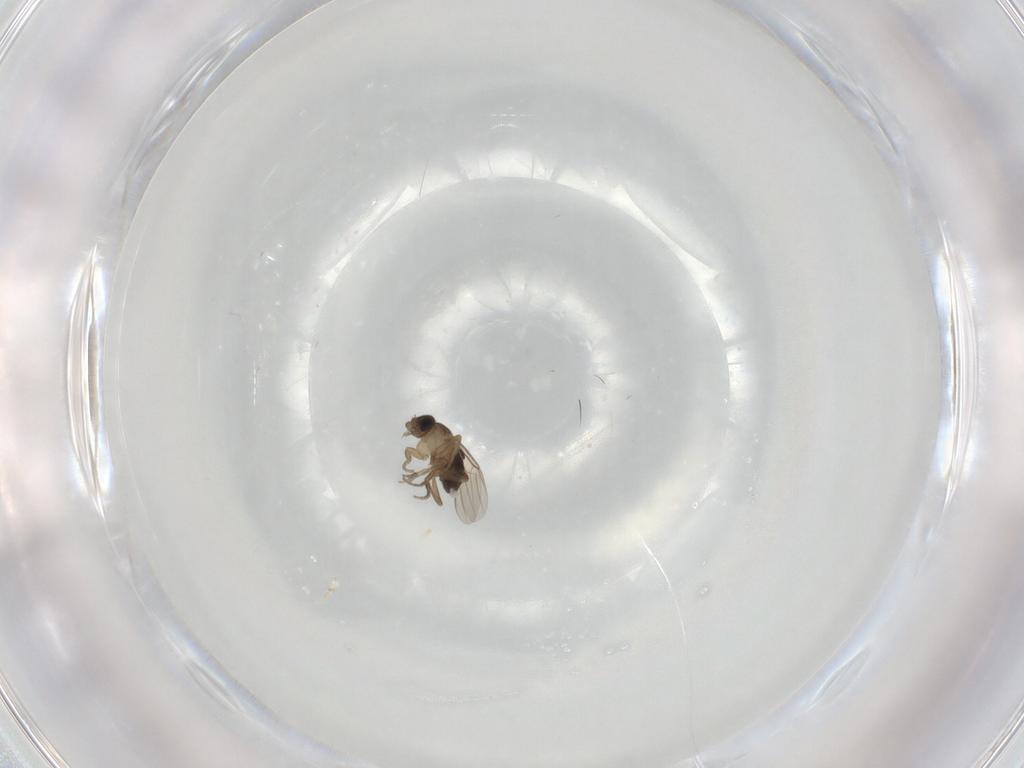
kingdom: Animalia
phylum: Arthropoda
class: Insecta
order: Diptera
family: Phoridae
